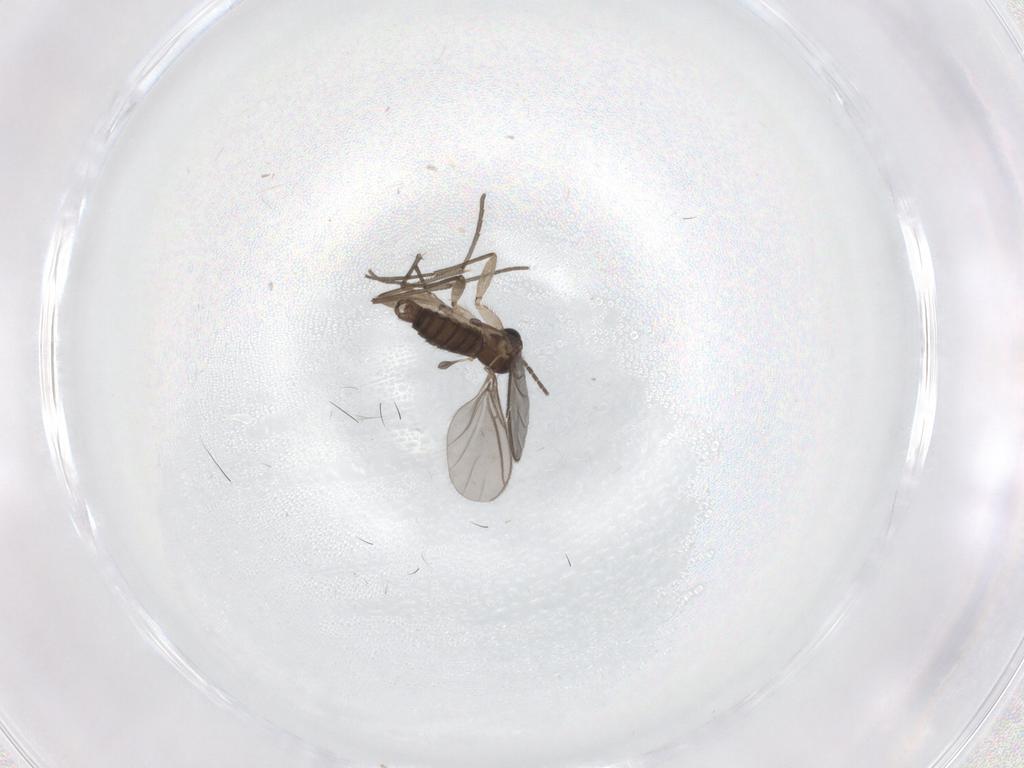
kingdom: Animalia
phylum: Arthropoda
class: Insecta
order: Diptera
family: Sciaridae
